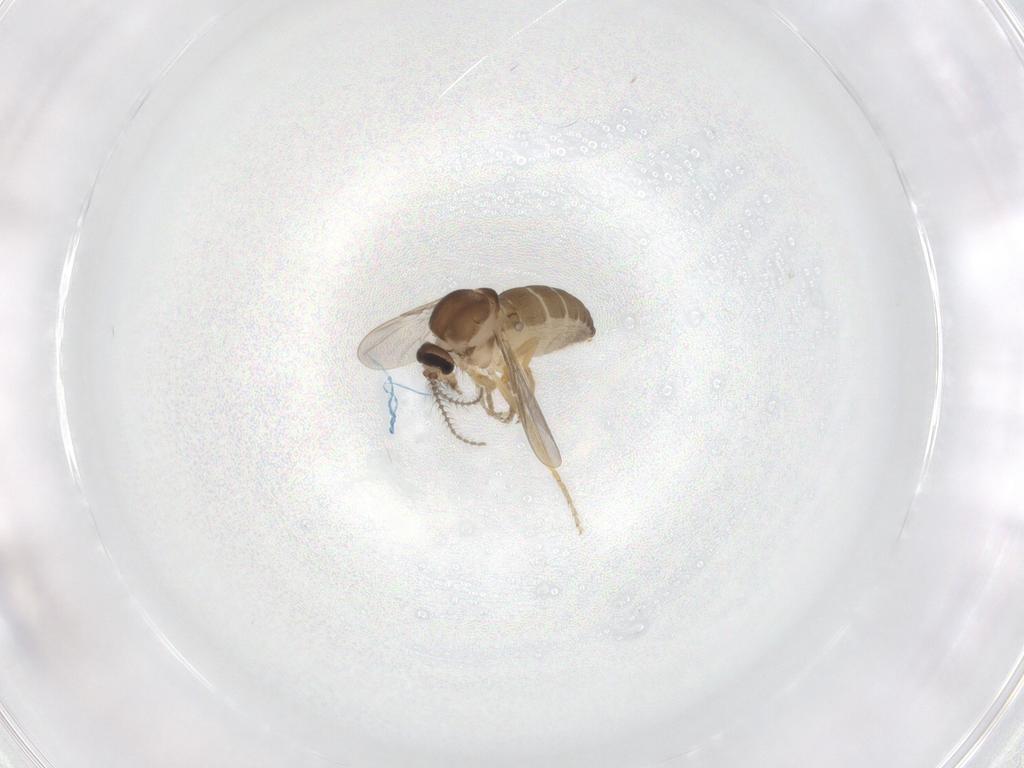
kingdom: Animalia
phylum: Arthropoda
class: Insecta
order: Diptera
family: Ceratopogonidae
